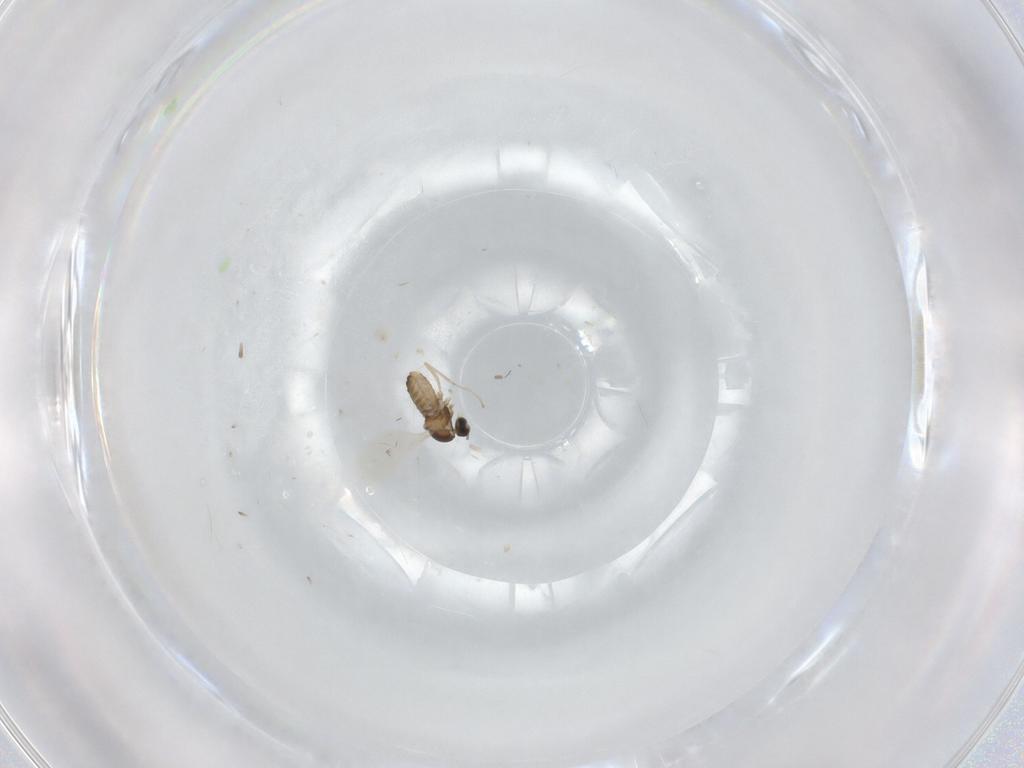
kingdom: Animalia
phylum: Arthropoda
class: Insecta
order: Diptera
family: Cecidomyiidae
